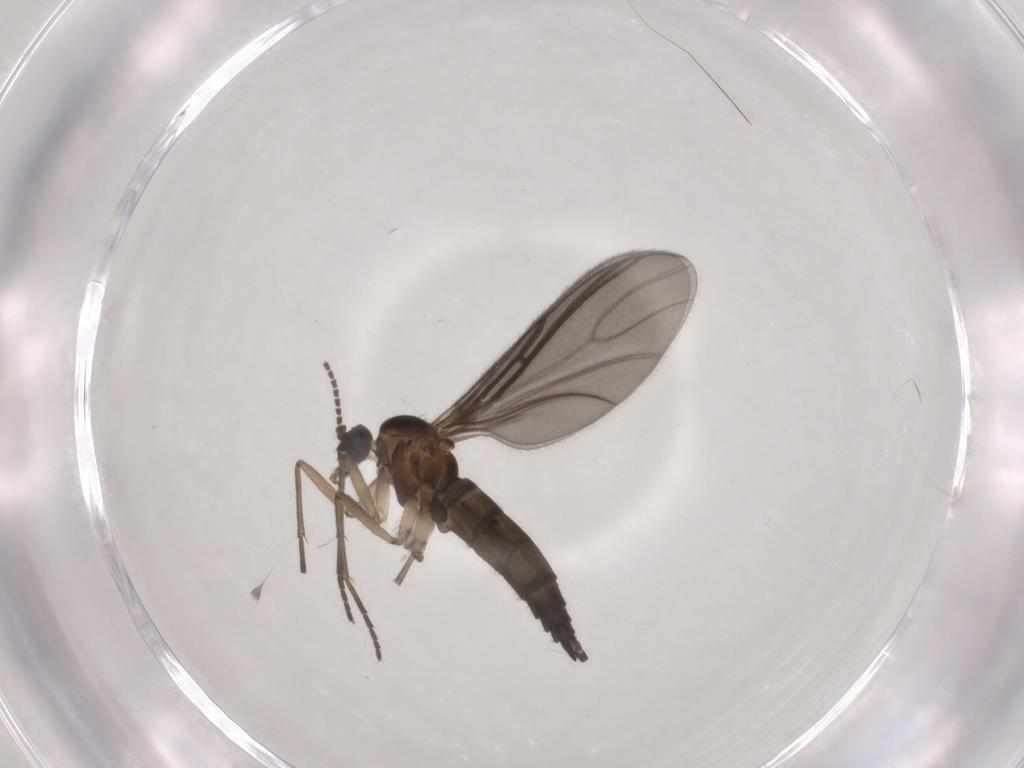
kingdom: Animalia
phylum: Arthropoda
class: Insecta
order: Diptera
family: Sciaridae
